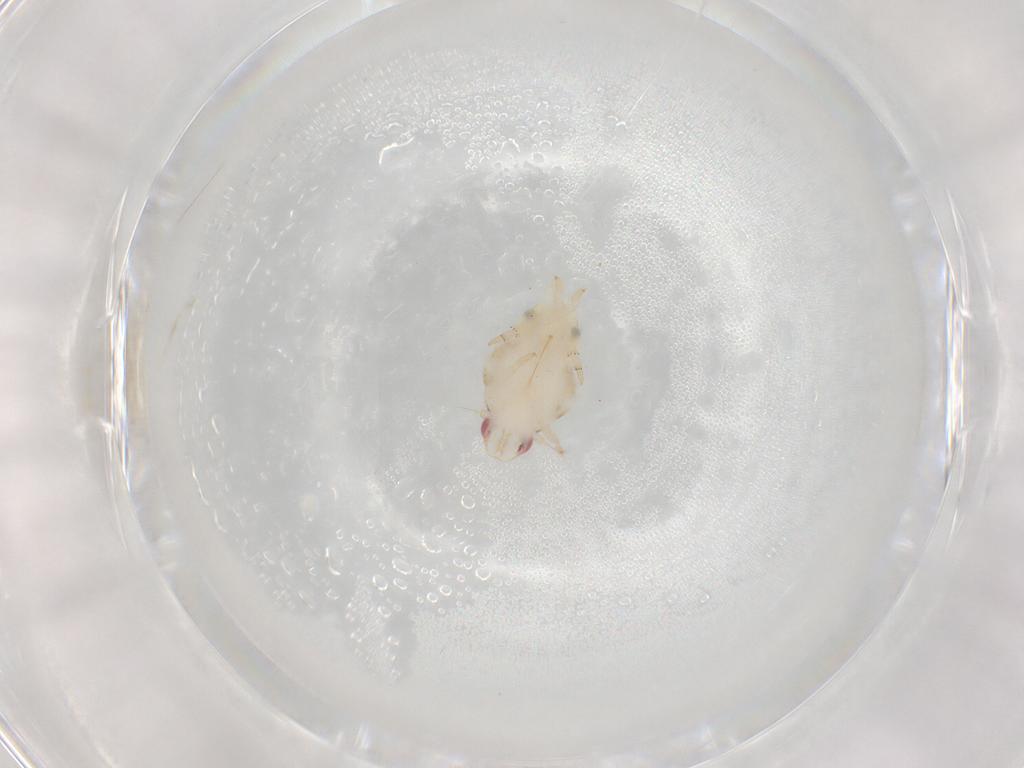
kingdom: Animalia
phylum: Arthropoda
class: Insecta
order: Hemiptera
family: Flatidae
